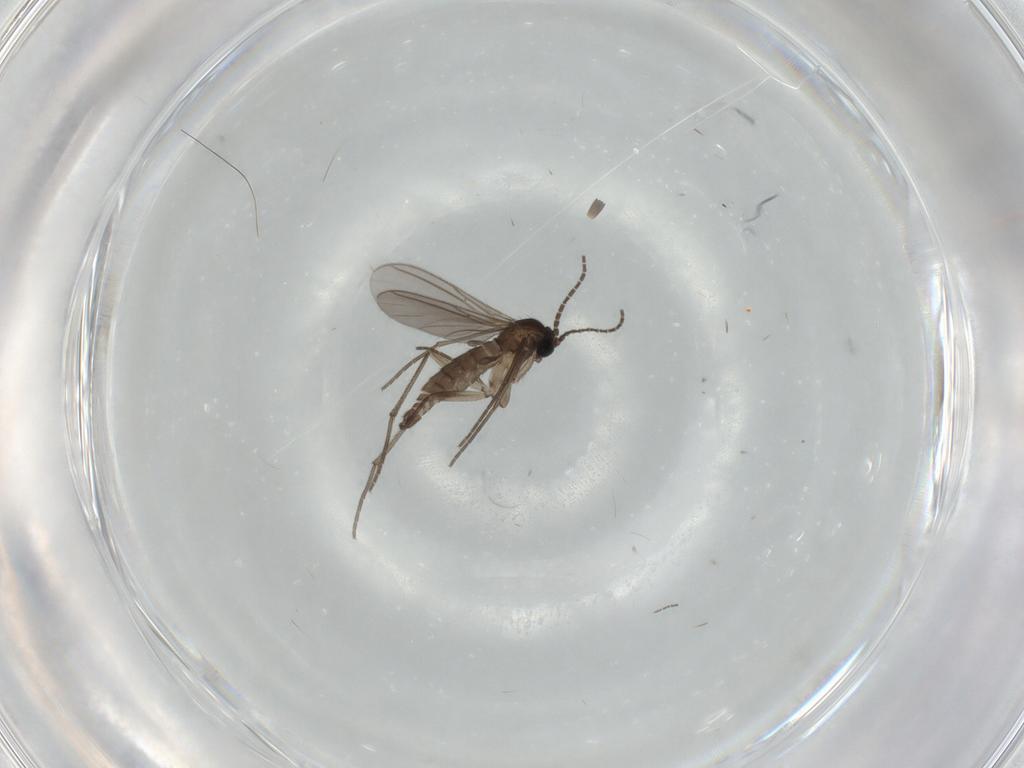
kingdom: Animalia
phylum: Arthropoda
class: Insecta
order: Diptera
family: Sciaridae
